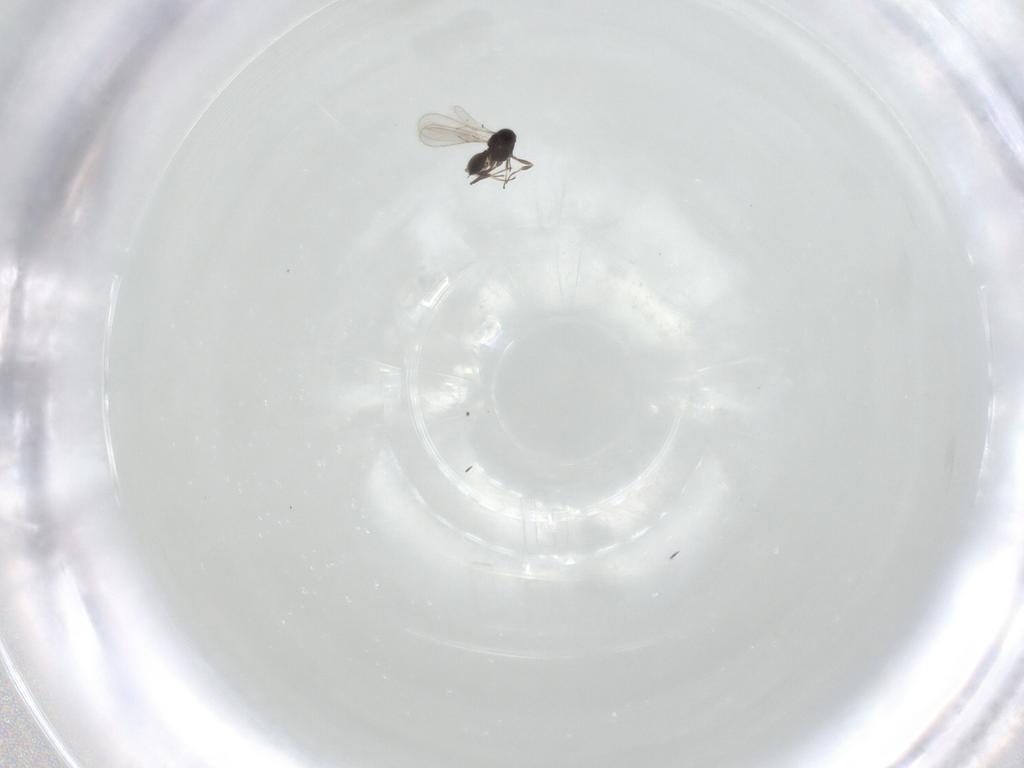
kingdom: Animalia
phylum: Arthropoda
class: Insecta
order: Hymenoptera
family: Scelionidae
